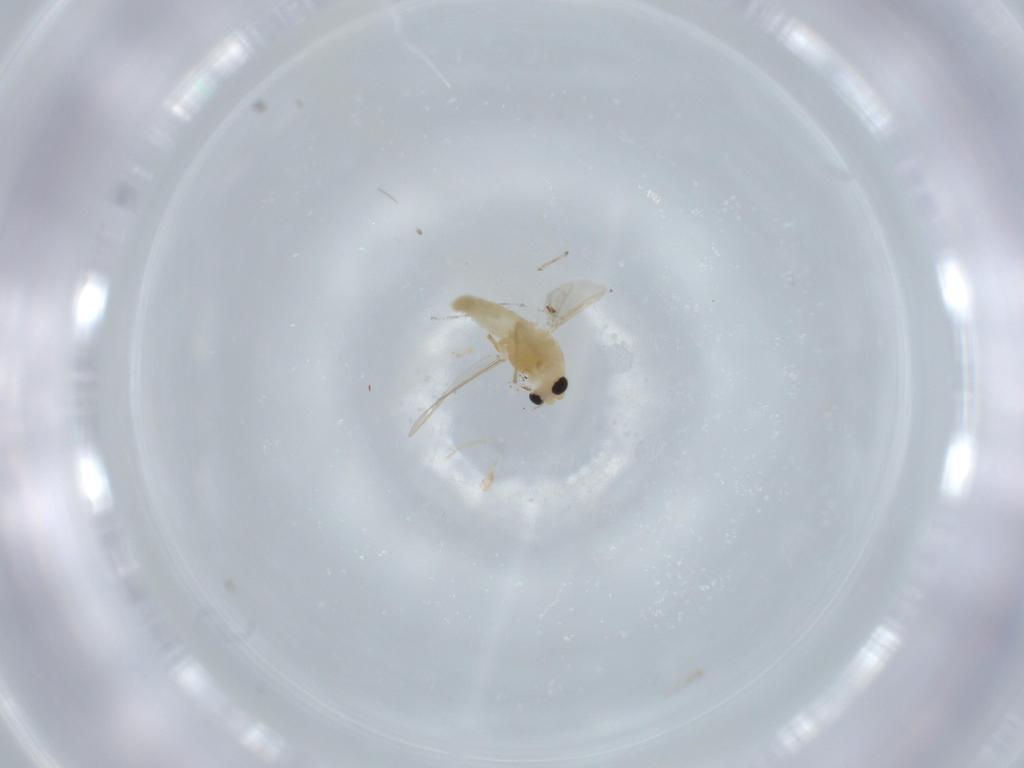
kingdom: Animalia
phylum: Arthropoda
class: Insecta
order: Diptera
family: Chironomidae
